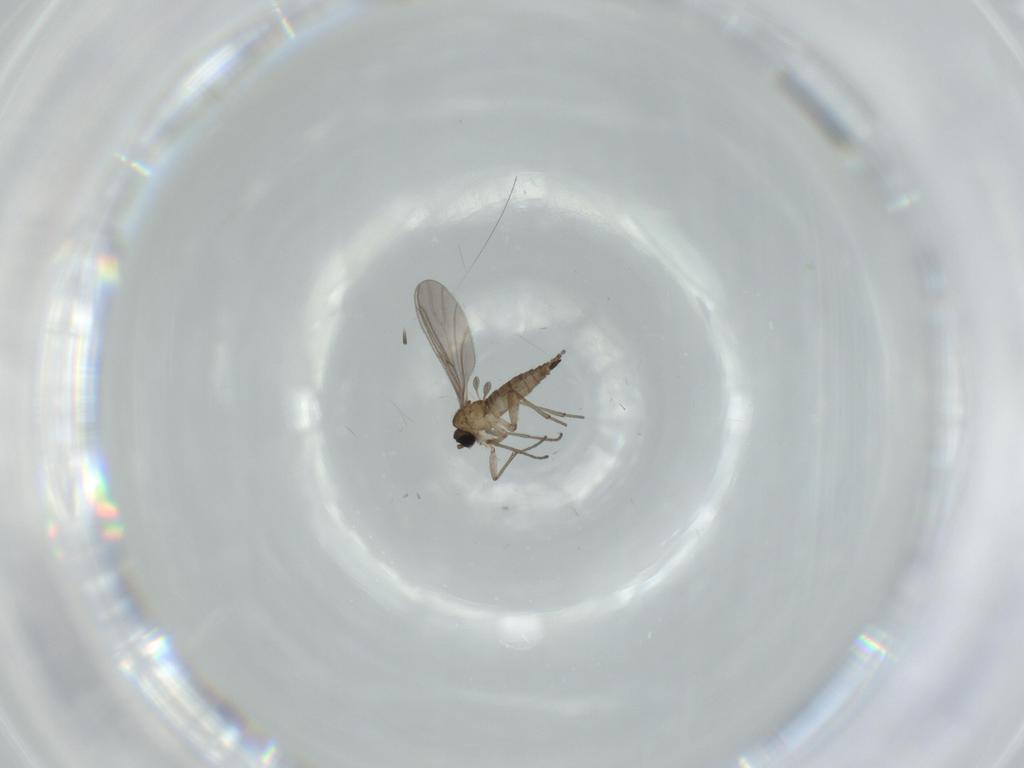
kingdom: Animalia
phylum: Arthropoda
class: Insecta
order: Diptera
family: Sciaridae
